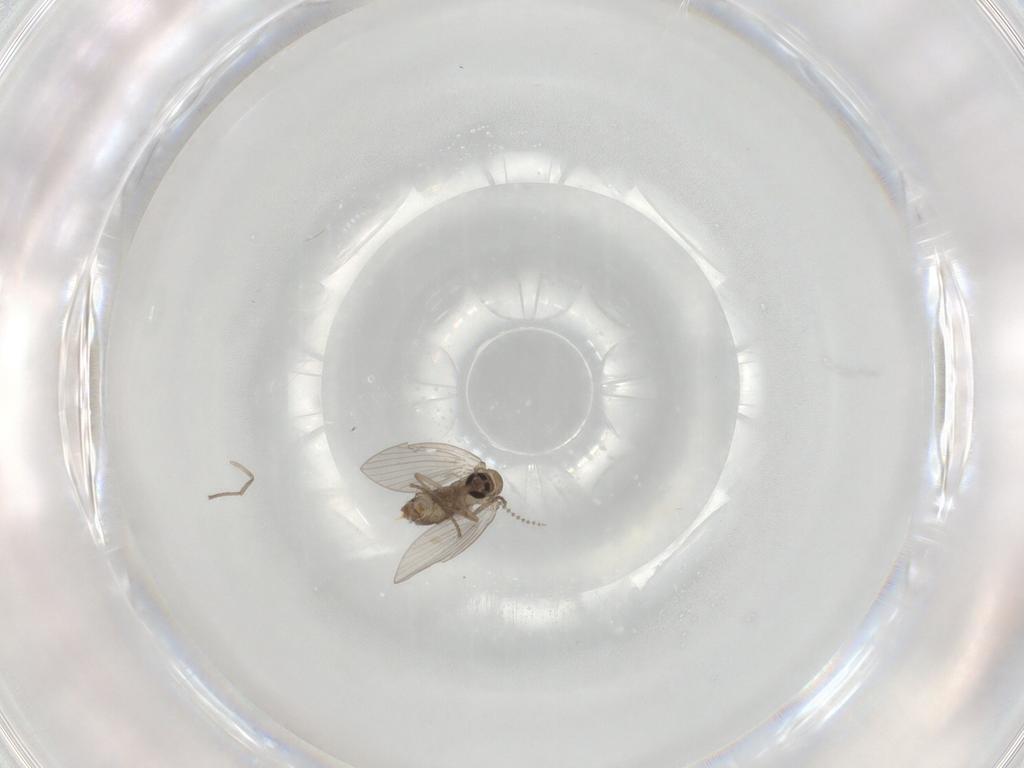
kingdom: Animalia
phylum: Arthropoda
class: Insecta
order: Diptera
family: Psychodidae
